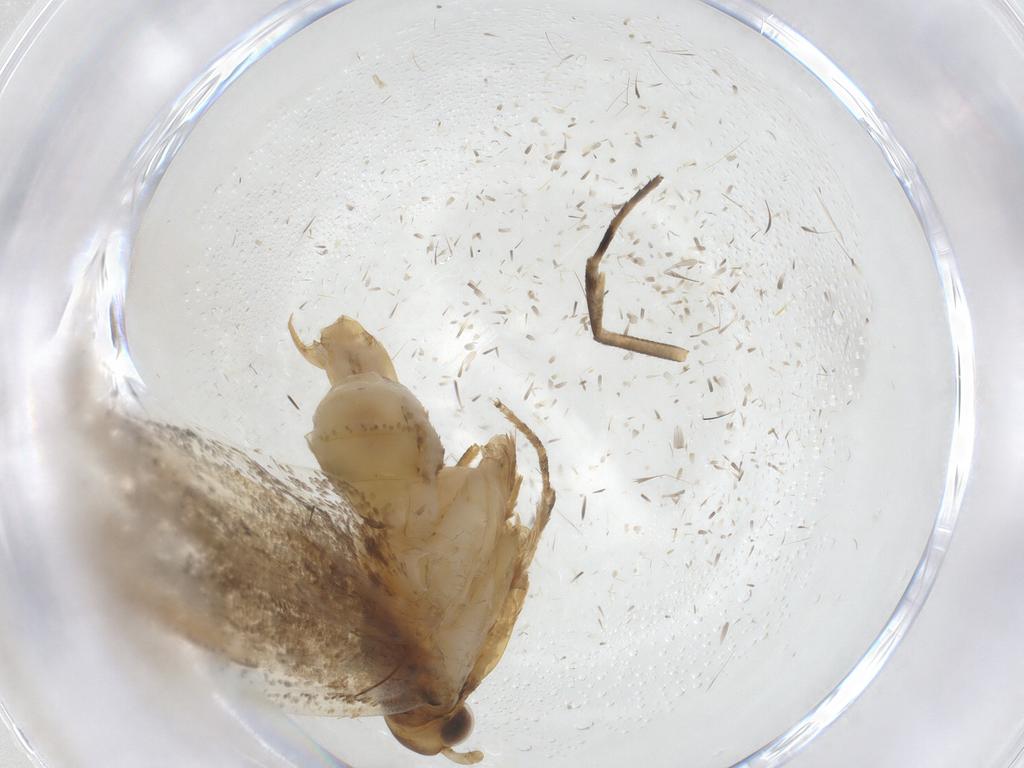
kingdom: Animalia
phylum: Arthropoda
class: Insecta
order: Lepidoptera
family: Lecithoceridae
